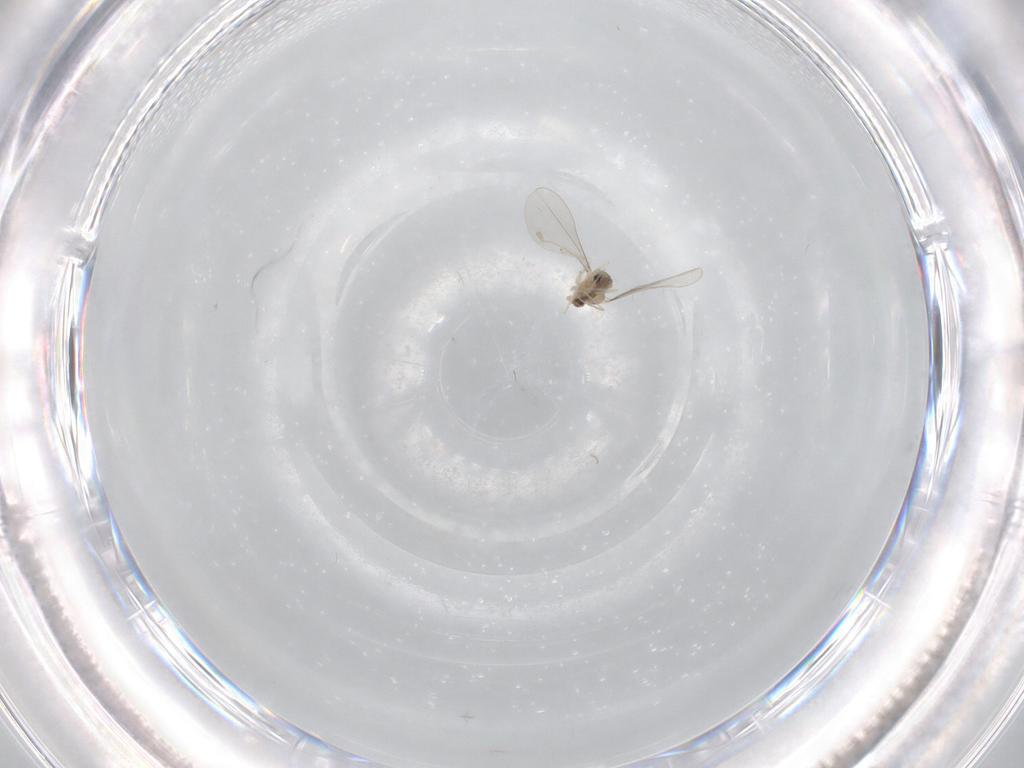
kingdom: Animalia
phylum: Arthropoda
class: Insecta
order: Diptera
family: Cecidomyiidae
